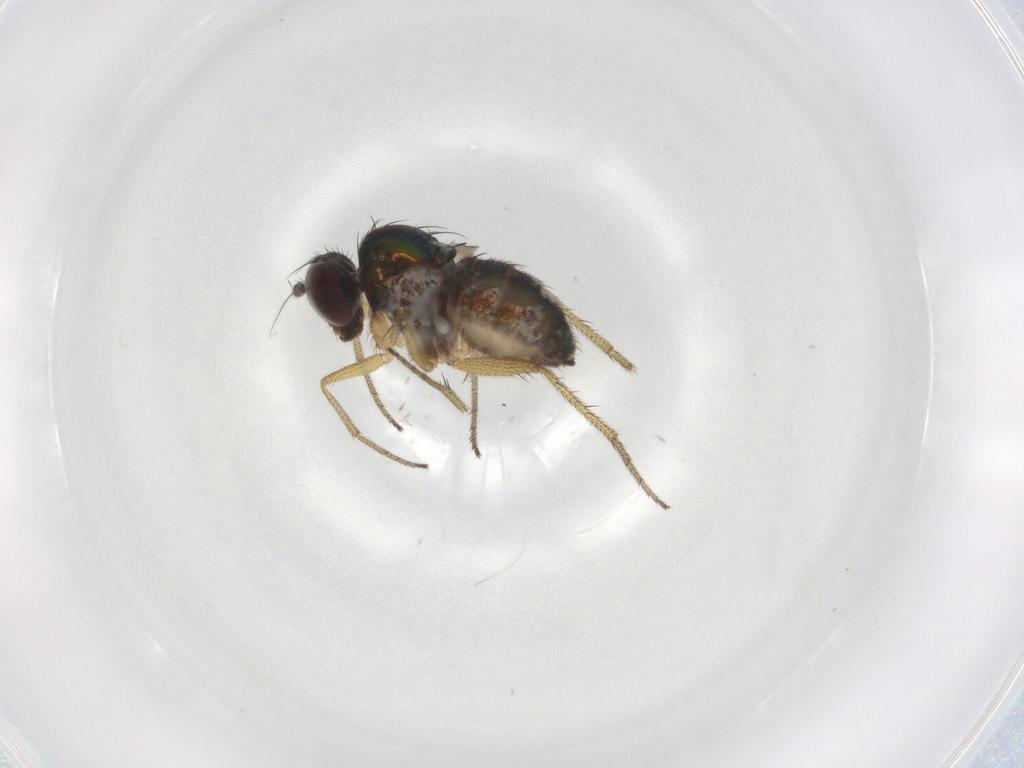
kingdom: Animalia
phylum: Arthropoda
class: Insecta
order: Diptera
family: Dolichopodidae
